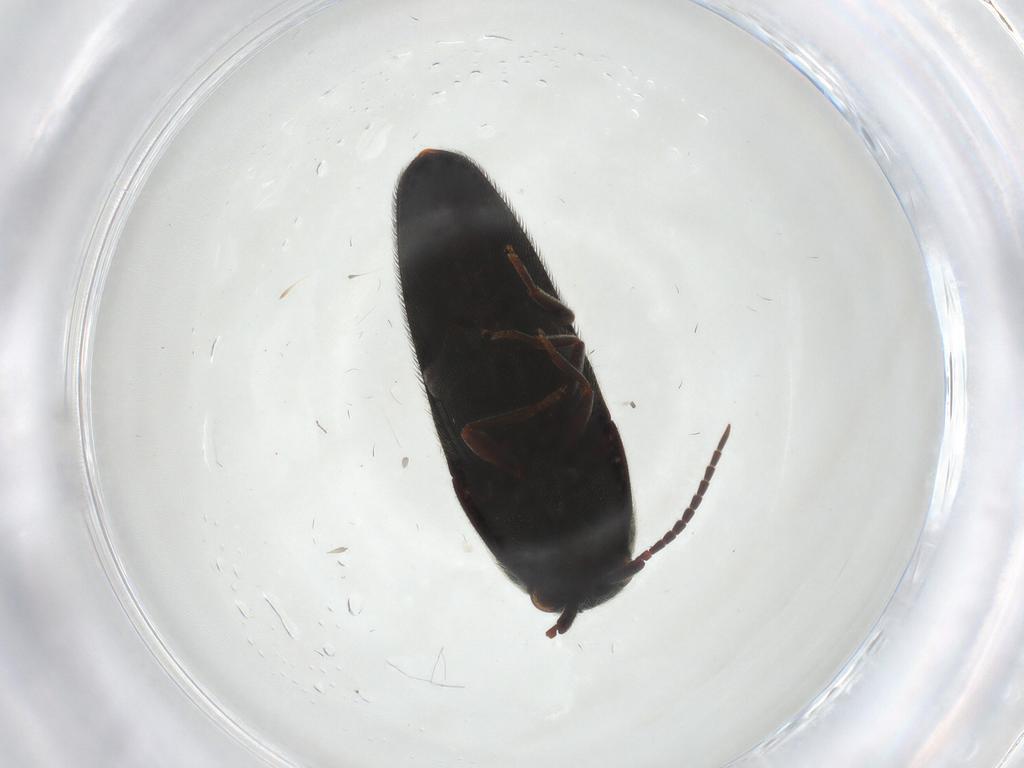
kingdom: Animalia
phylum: Arthropoda
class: Insecta
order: Coleoptera
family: Endomychidae
